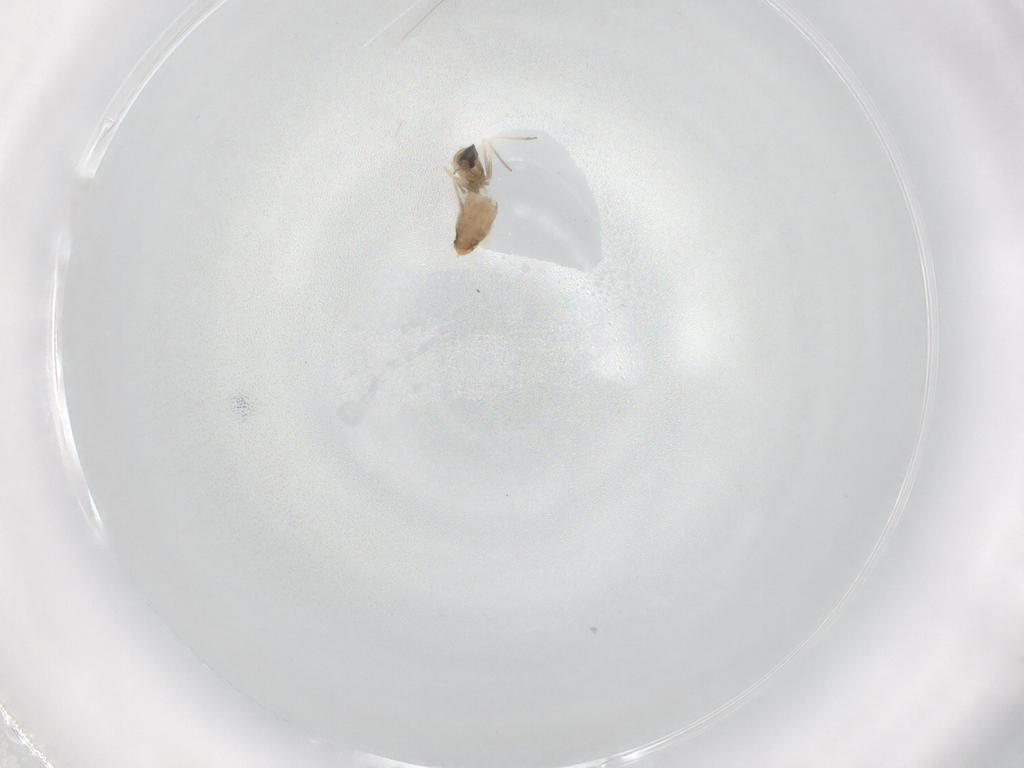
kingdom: Animalia
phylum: Arthropoda
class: Insecta
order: Diptera
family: Cecidomyiidae
